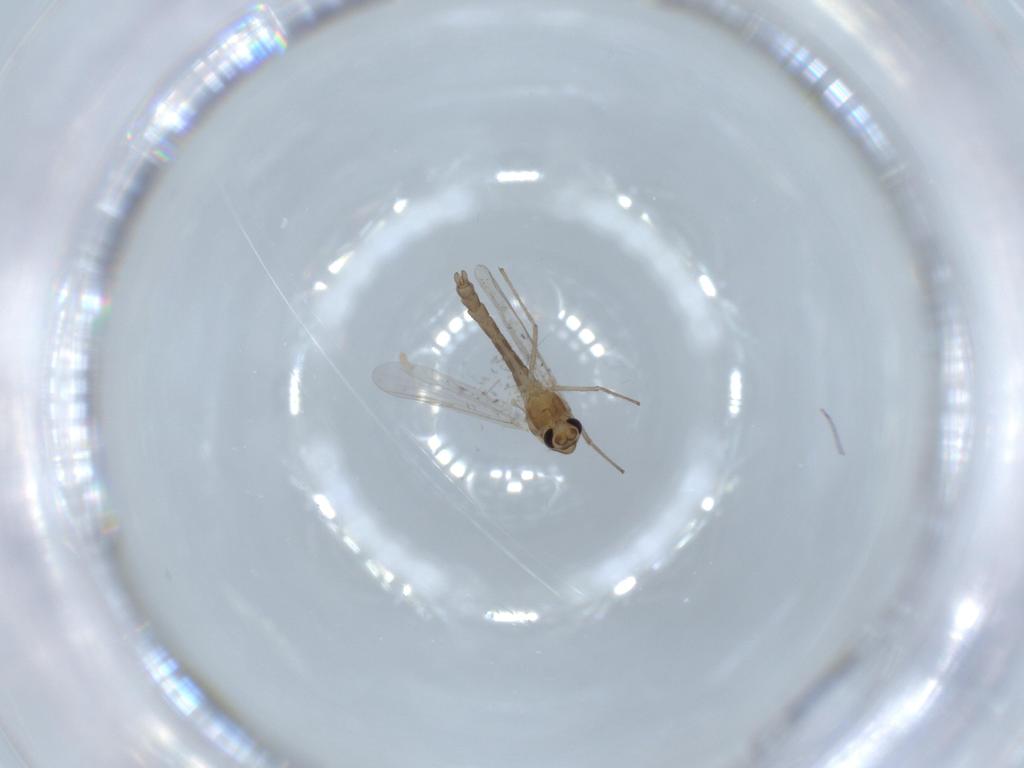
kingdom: Animalia
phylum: Arthropoda
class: Insecta
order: Diptera
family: Chironomidae
